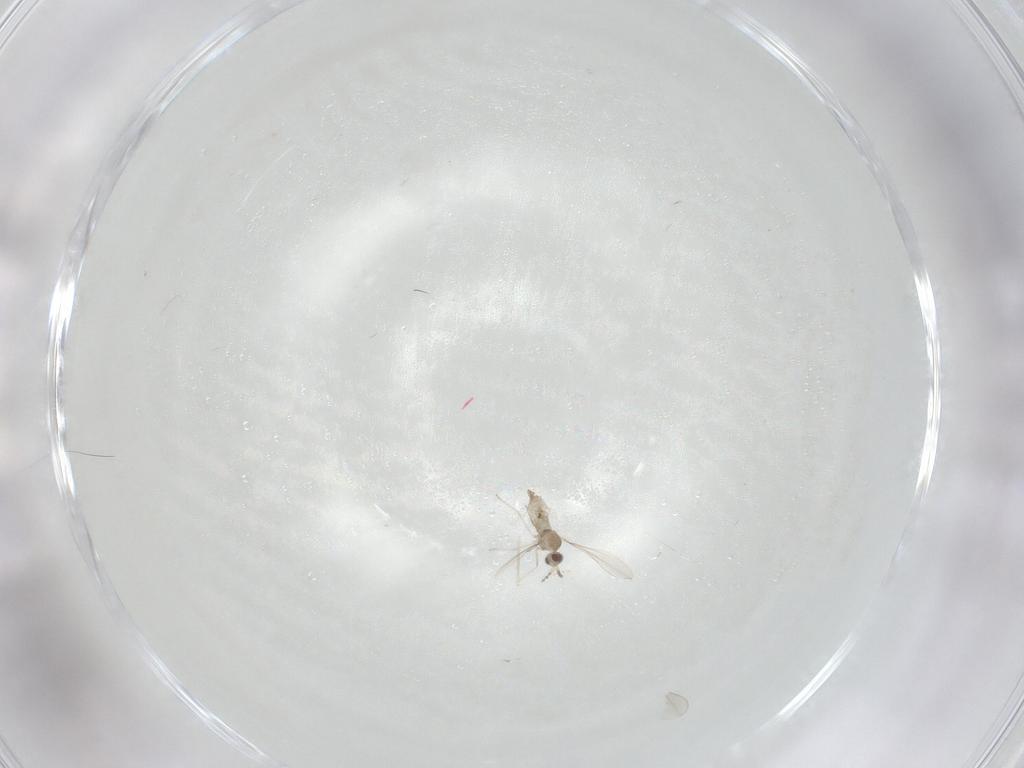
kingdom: Animalia
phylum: Arthropoda
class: Insecta
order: Diptera
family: Cecidomyiidae
